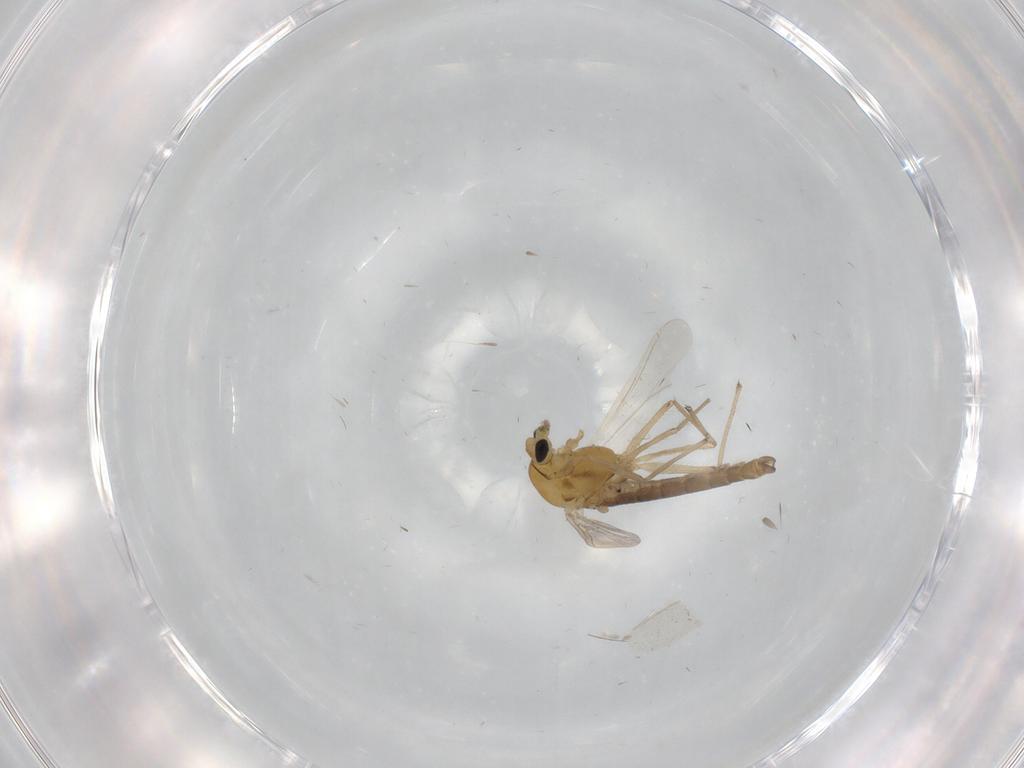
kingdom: Animalia
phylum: Arthropoda
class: Insecta
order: Diptera
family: Chironomidae
